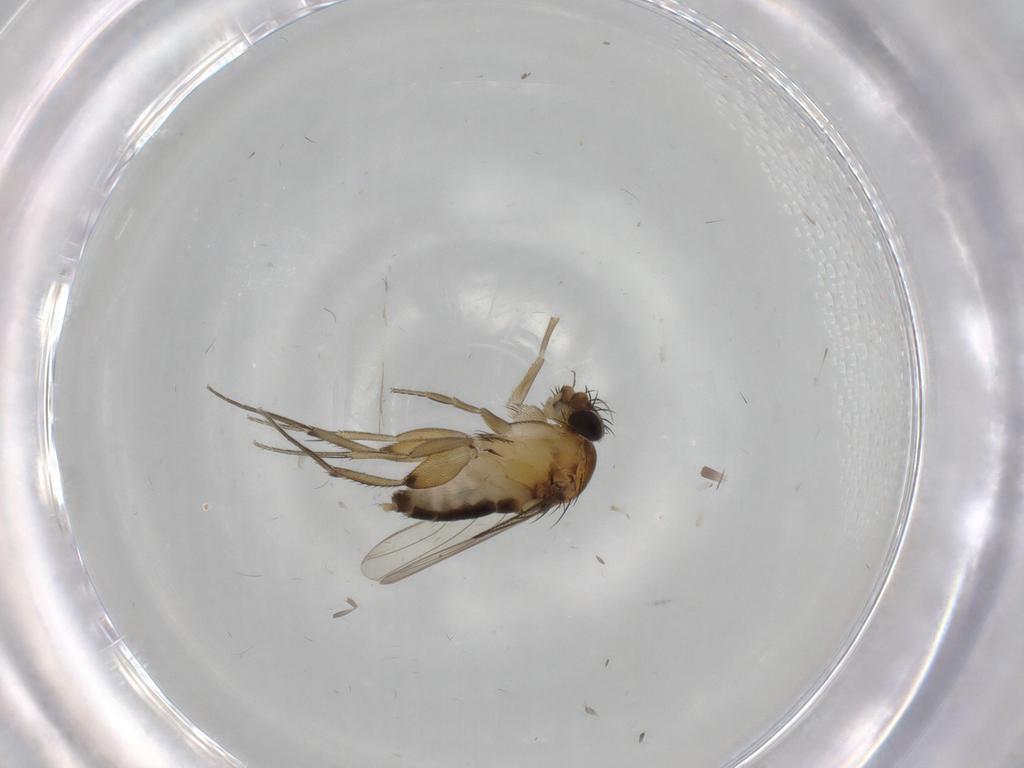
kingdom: Animalia
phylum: Arthropoda
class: Insecta
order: Diptera
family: Phoridae
